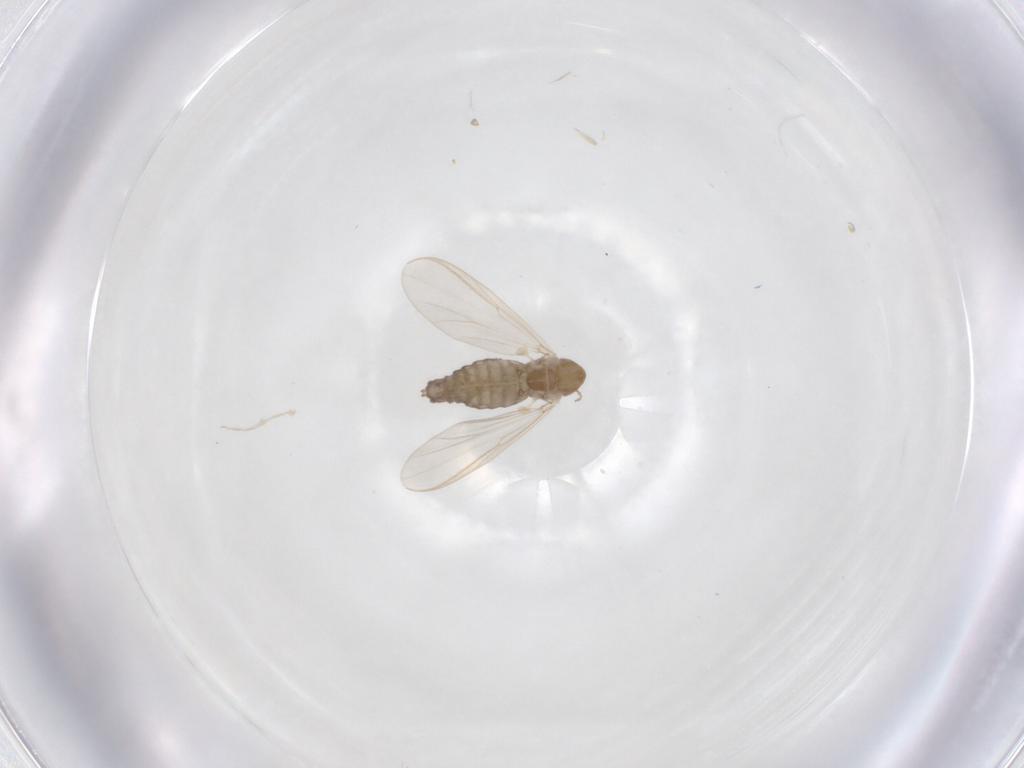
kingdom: Animalia
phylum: Arthropoda
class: Insecta
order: Diptera
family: Chironomidae
